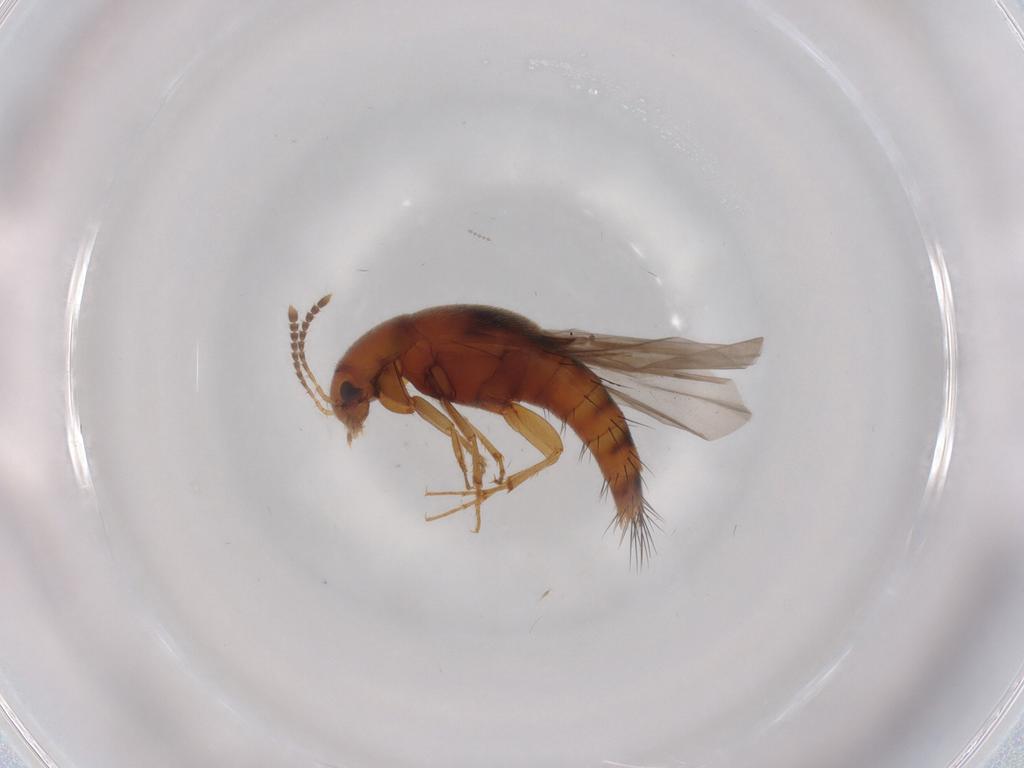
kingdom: Animalia
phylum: Arthropoda
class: Insecta
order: Coleoptera
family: Staphylinidae
